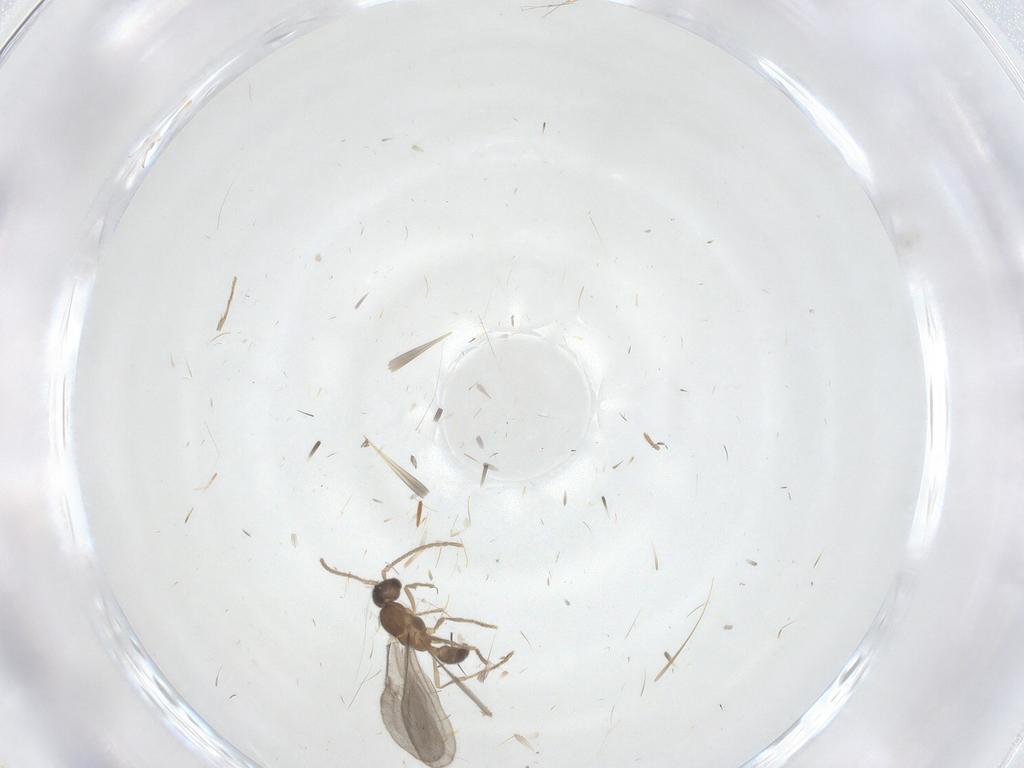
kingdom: Animalia
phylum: Arthropoda
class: Insecta
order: Hymenoptera
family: Formicidae
